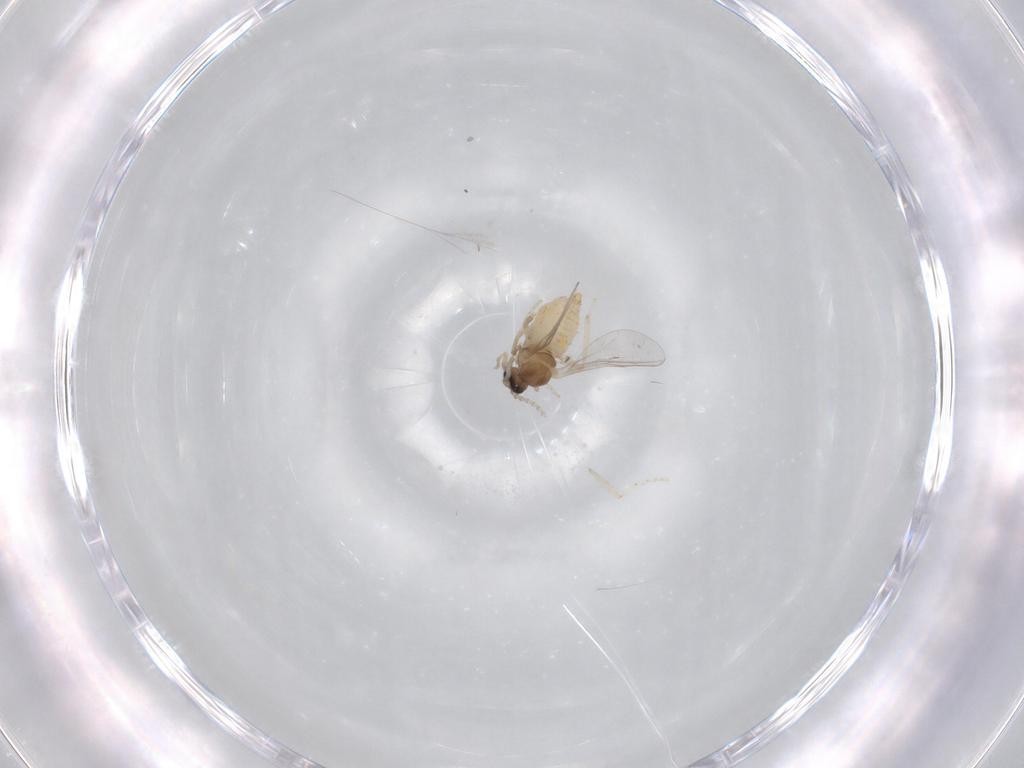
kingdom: Animalia
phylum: Arthropoda
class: Insecta
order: Diptera
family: Cecidomyiidae
